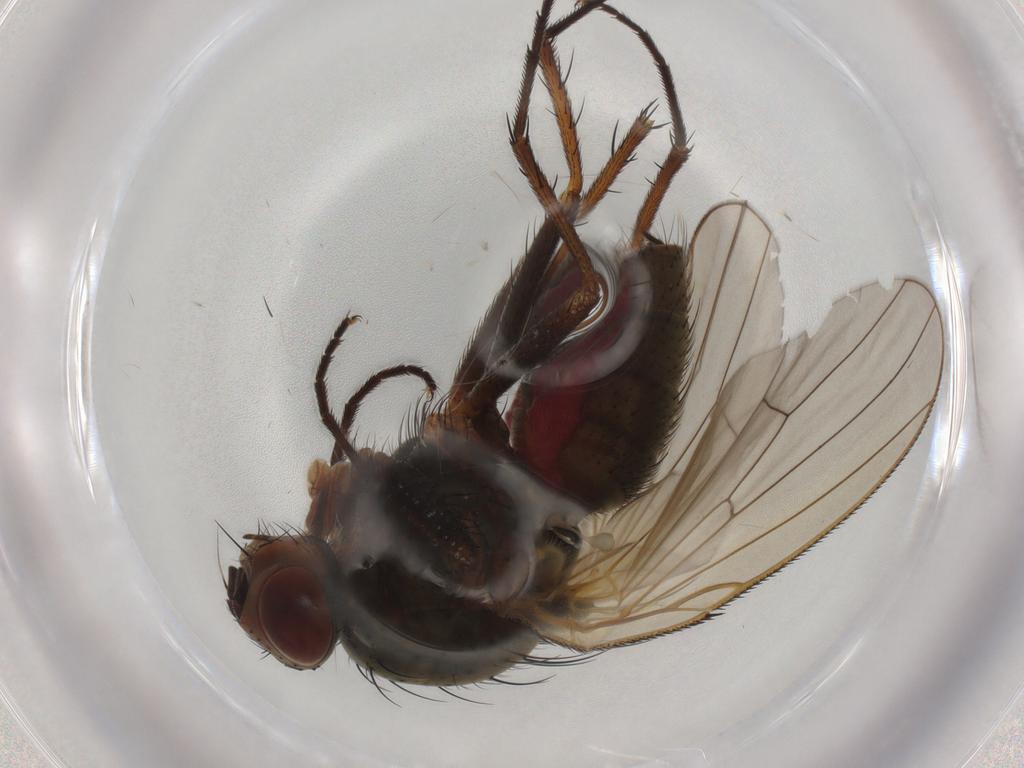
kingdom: Animalia
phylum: Arthropoda
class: Insecta
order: Diptera
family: Anthomyiidae
